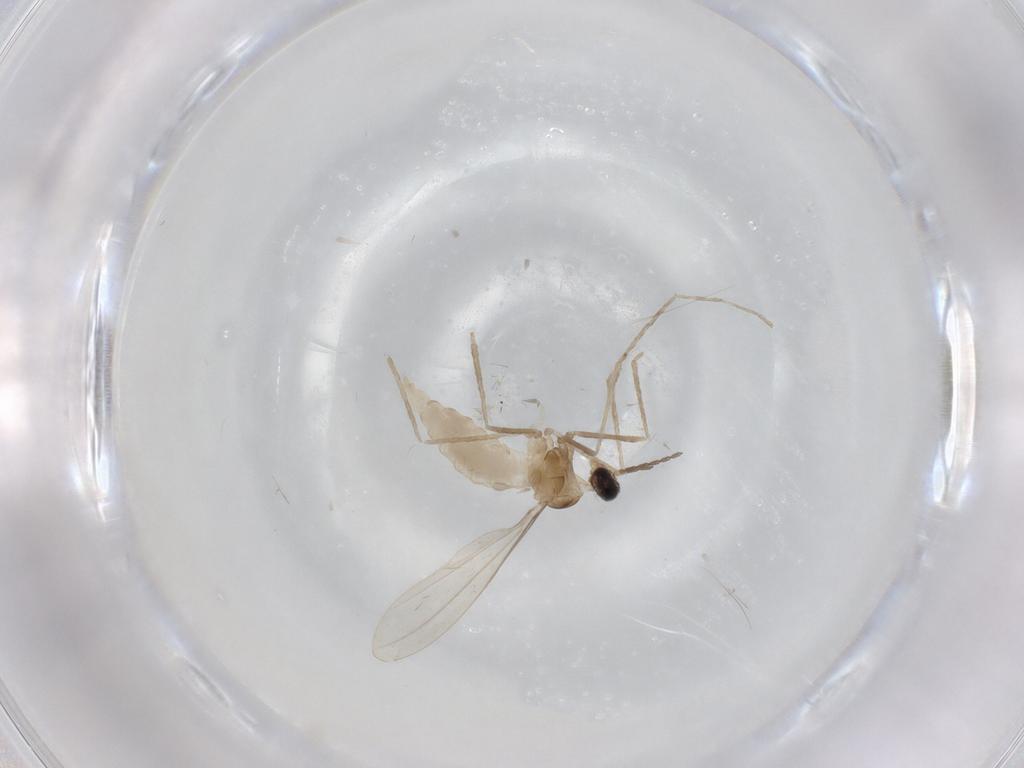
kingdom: Animalia
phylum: Arthropoda
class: Insecta
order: Diptera
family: Cecidomyiidae
